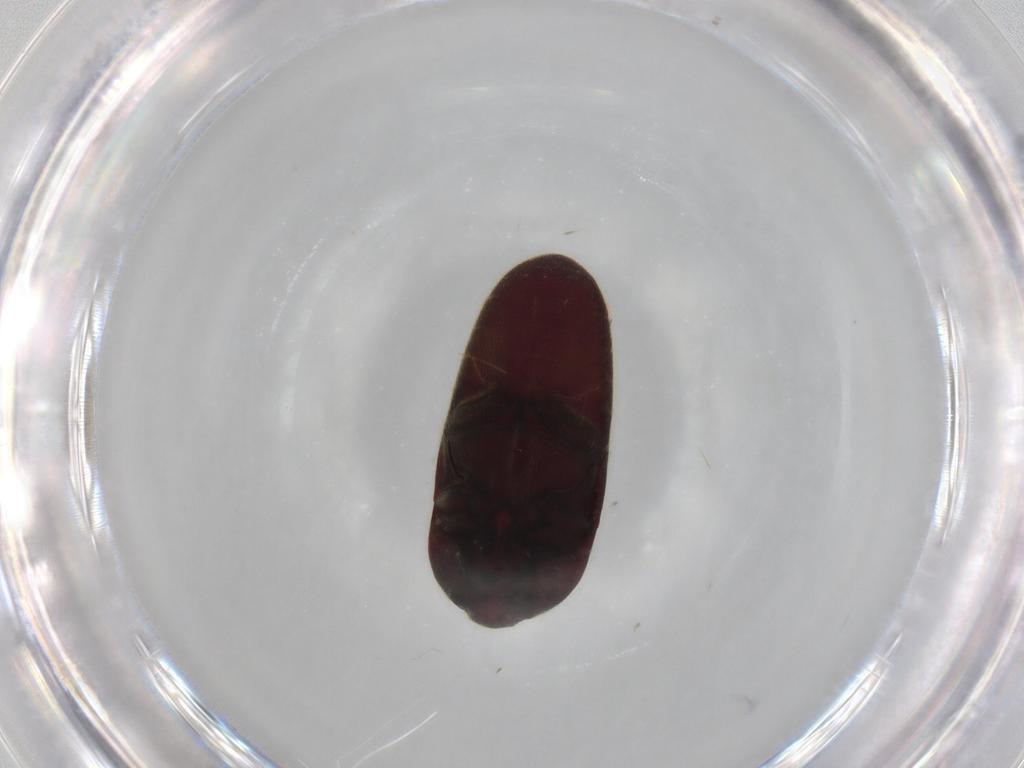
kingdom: Animalia
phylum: Arthropoda
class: Insecta
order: Coleoptera
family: Throscidae
